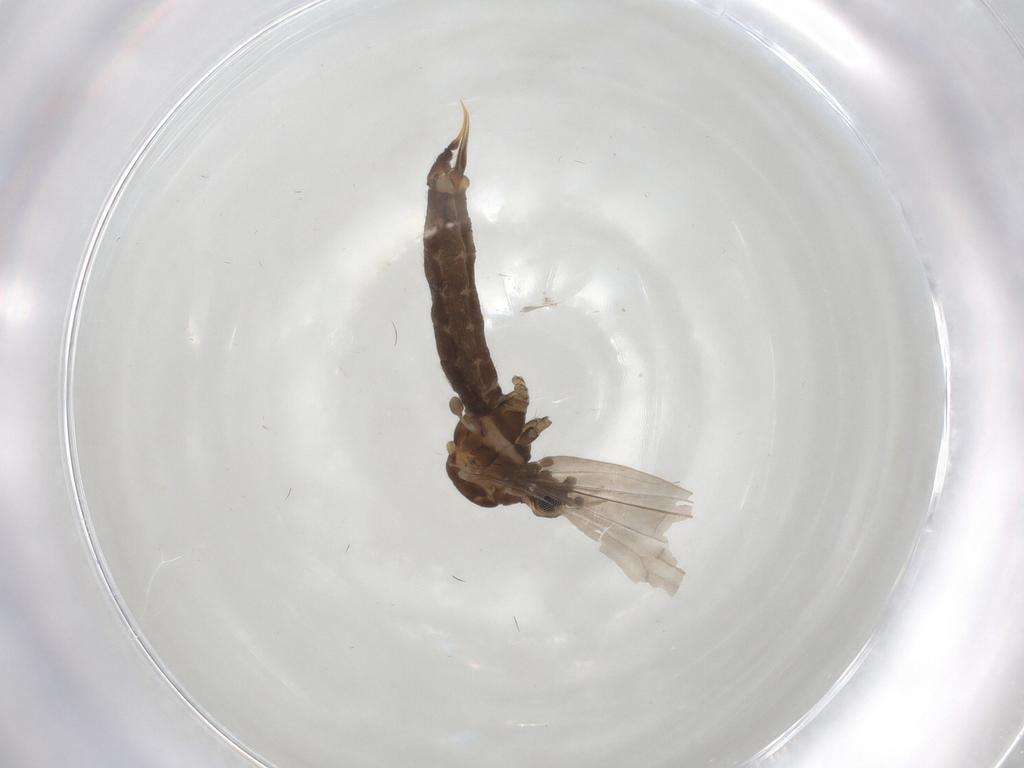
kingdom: Animalia
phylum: Arthropoda
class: Insecta
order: Diptera
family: Limoniidae
